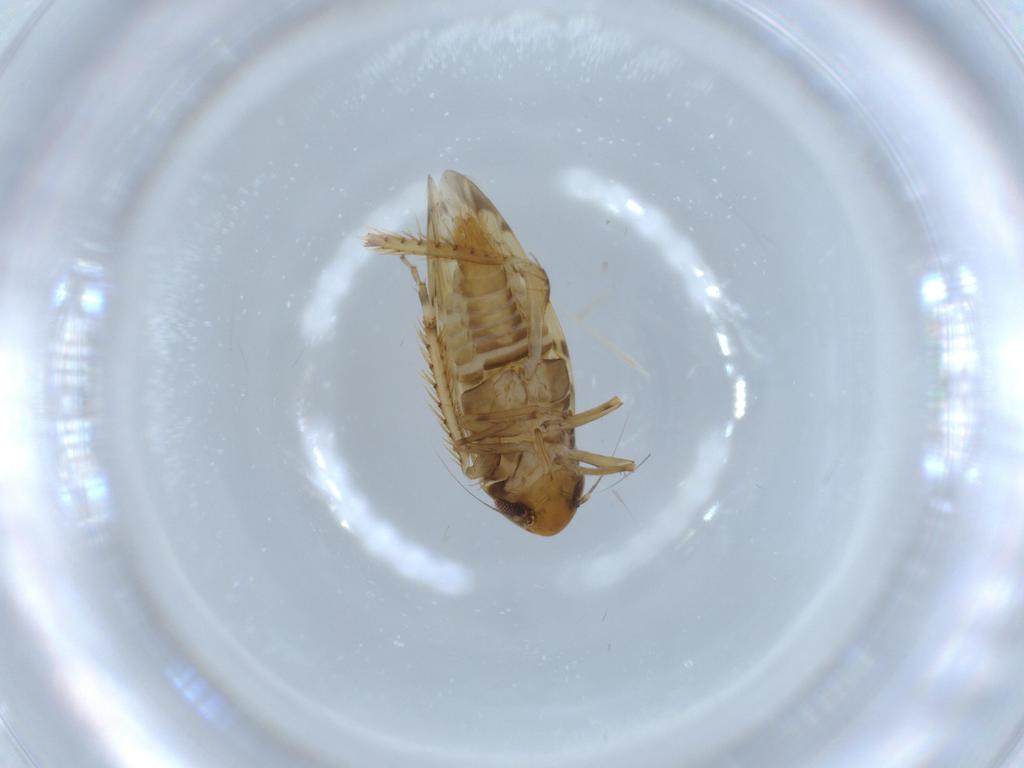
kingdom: Animalia
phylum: Arthropoda
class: Insecta
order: Hemiptera
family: Cicadellidae
